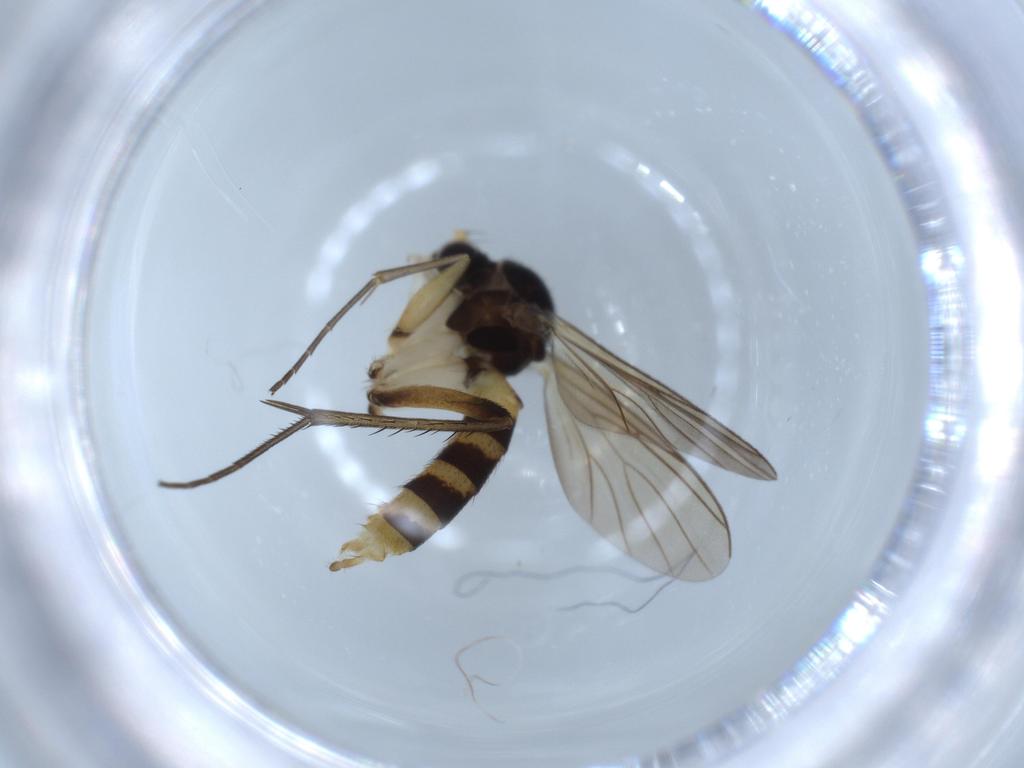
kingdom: Animalia
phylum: Arthropoda
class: Insecta
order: Diptera
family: Mycetophilidae
